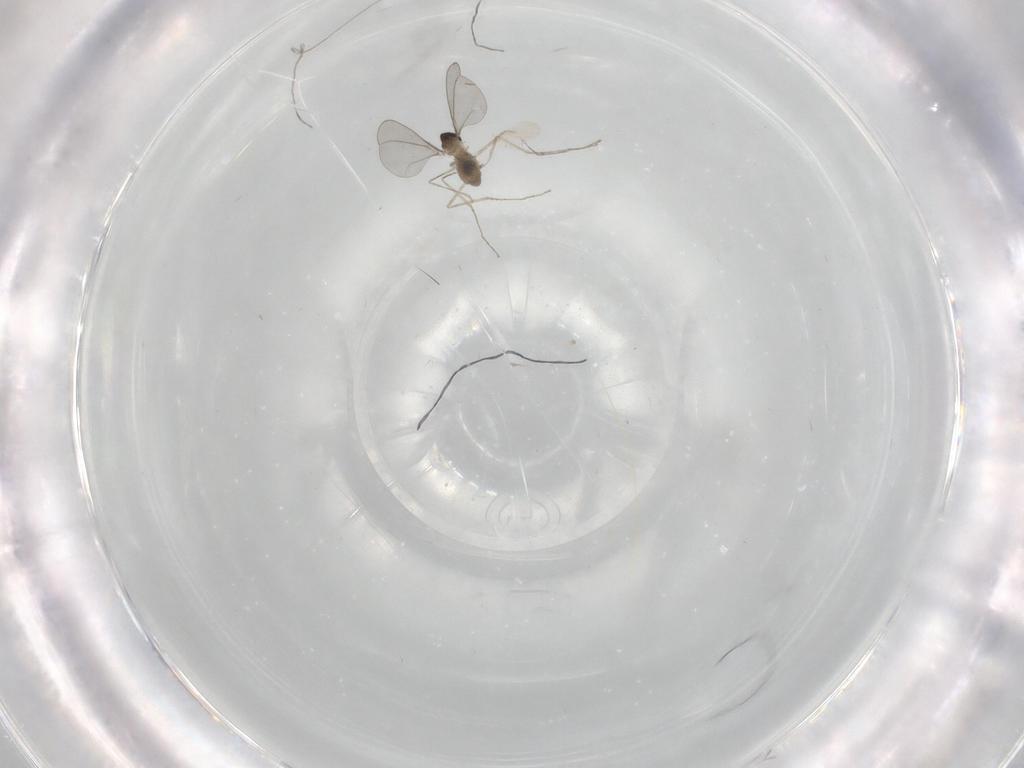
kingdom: Animalia
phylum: Arthropoda
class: Insecta
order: Diptera
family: Cecidomyiidae
